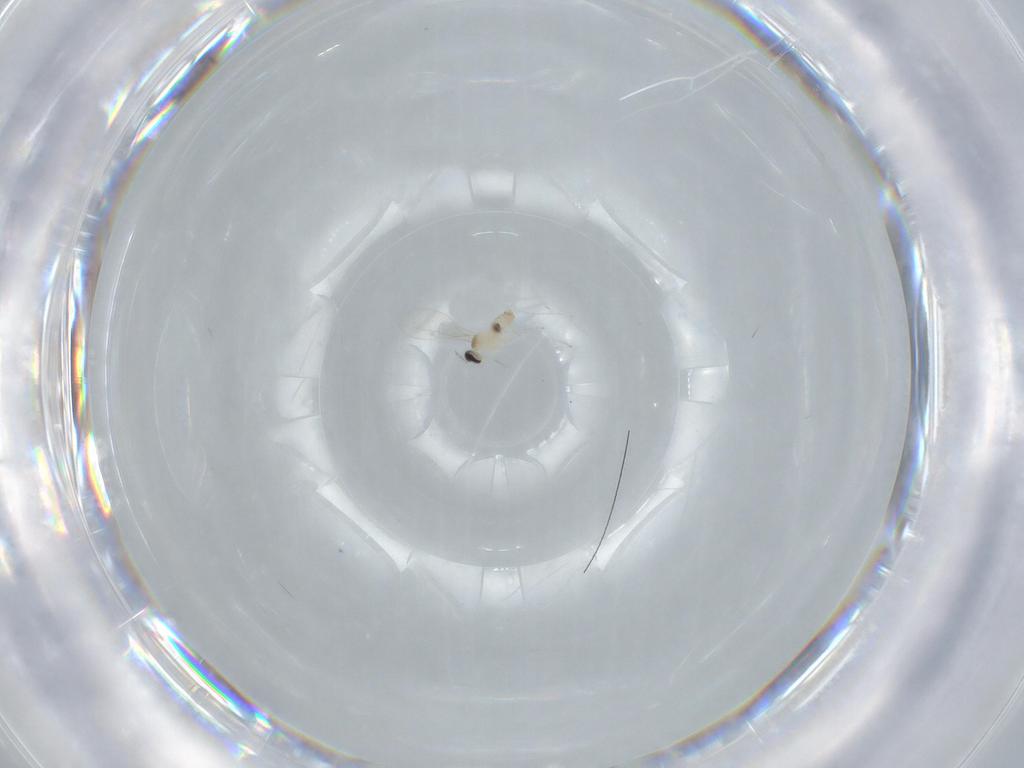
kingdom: Animalia
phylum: Arthropoda
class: Insecta
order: Diptera
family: Cecidomyiidae
